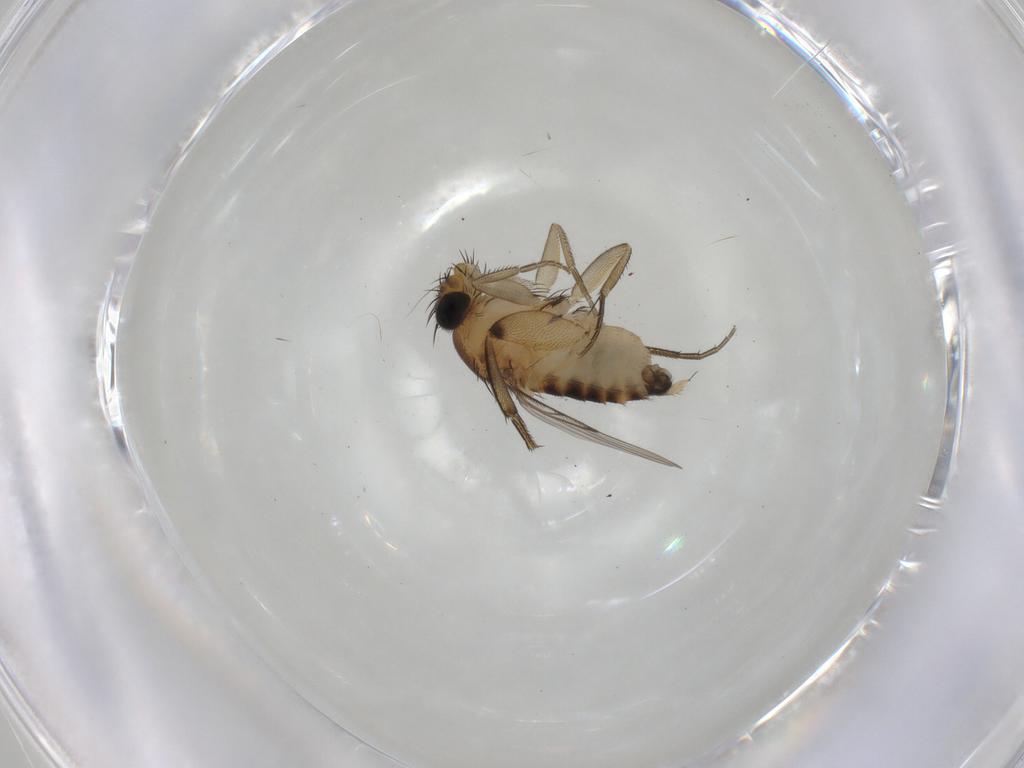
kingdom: Animalia
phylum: Arthropoda
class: Insecta
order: Diptera
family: Phoridae
